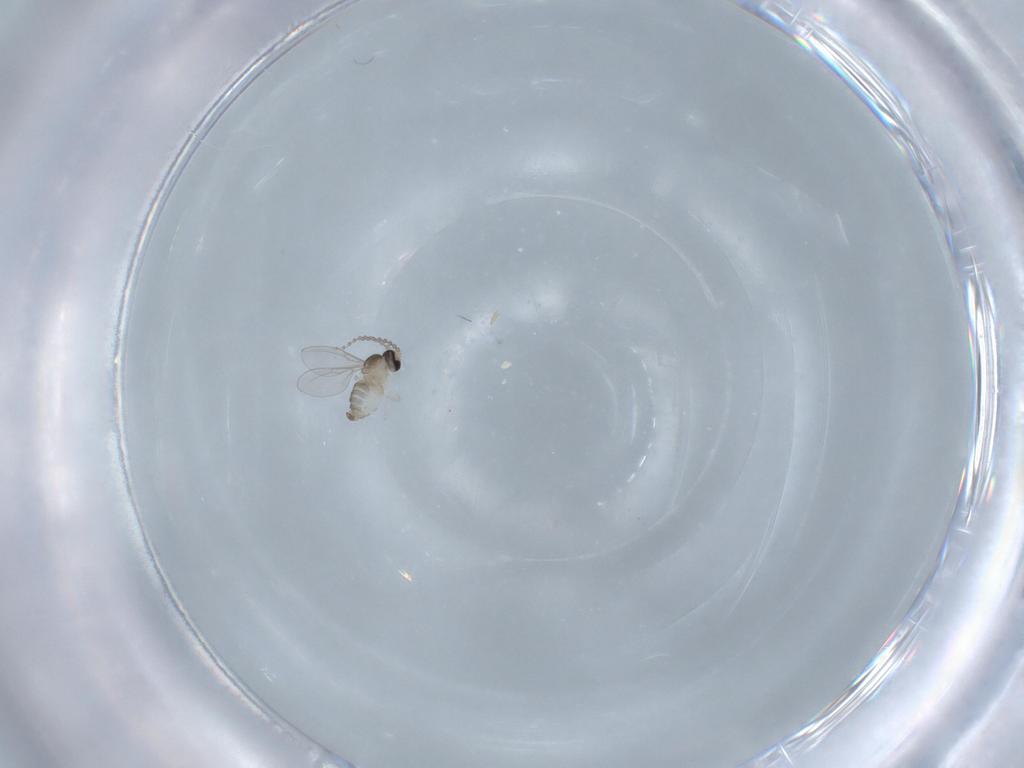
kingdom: Animalia
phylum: Arthropoda
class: Insecta
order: Diptera
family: Cecidomyiidae
